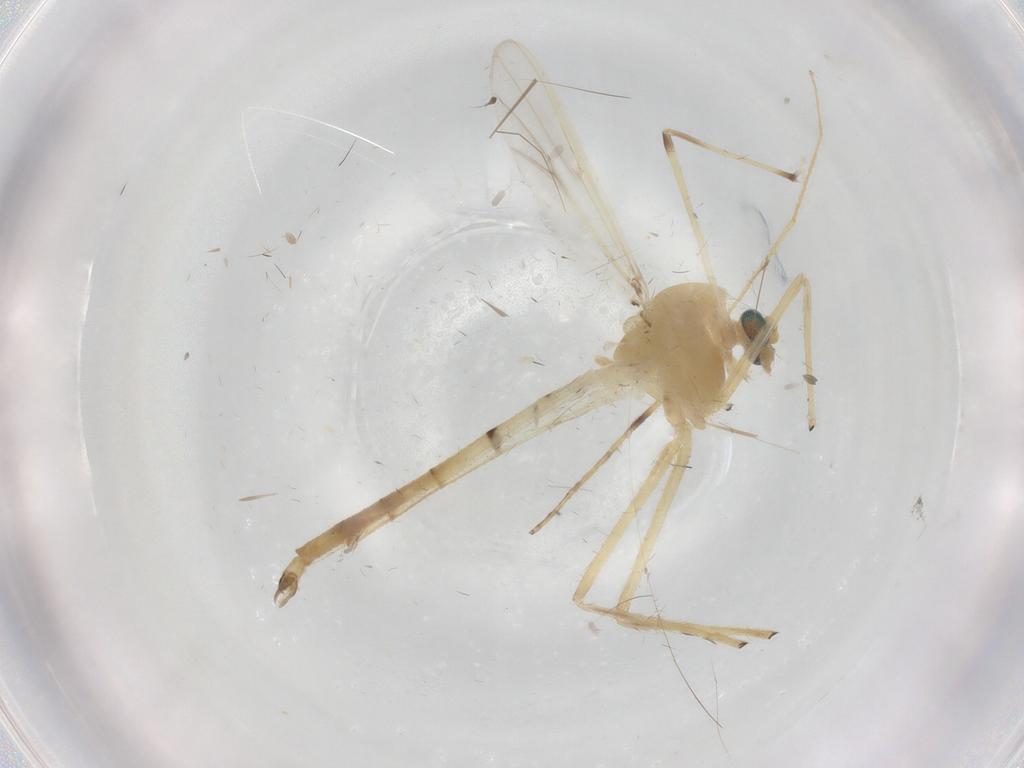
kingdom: Animalia
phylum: Arthropoda
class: Insecta
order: Diptera
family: Chironomidae
